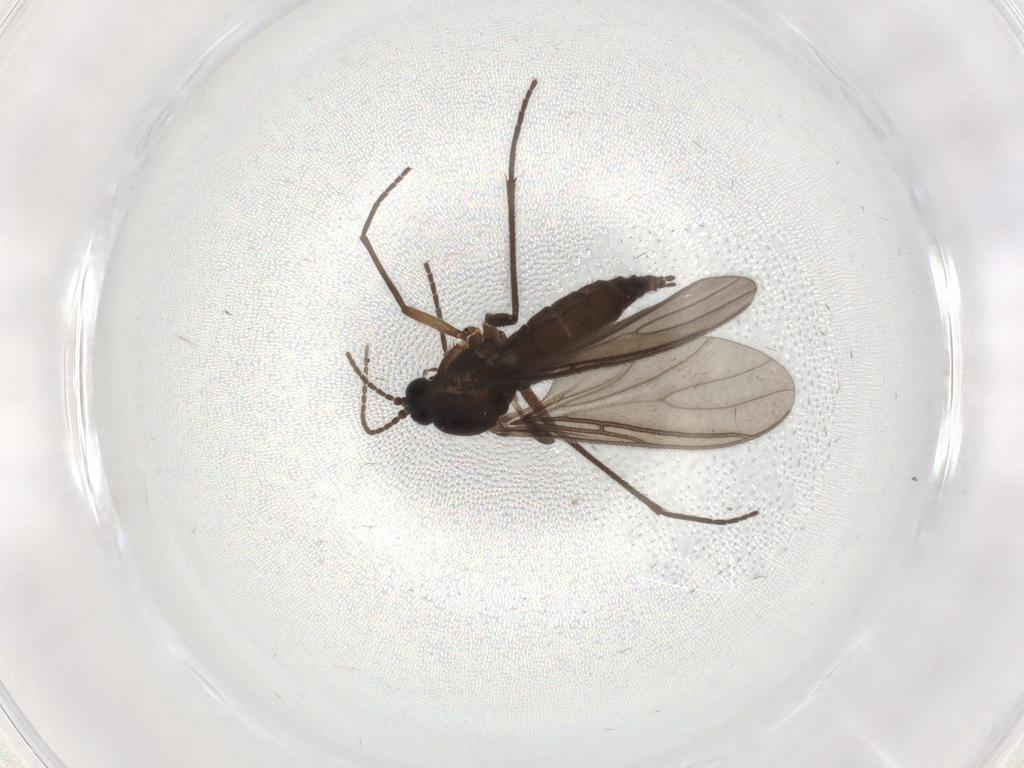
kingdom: Animalia
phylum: Arthropoda
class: Insecta
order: Diptera
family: Sciaridae
